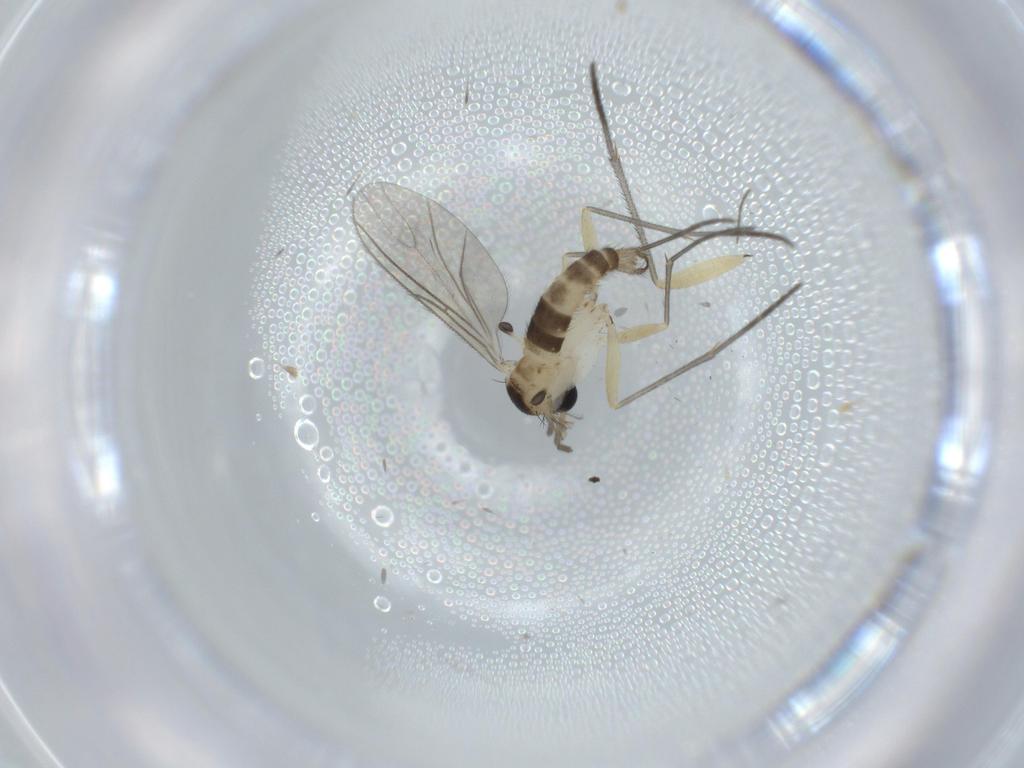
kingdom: Animalia
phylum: Arthropoda
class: Insecta
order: Diptera
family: Sciaridae
